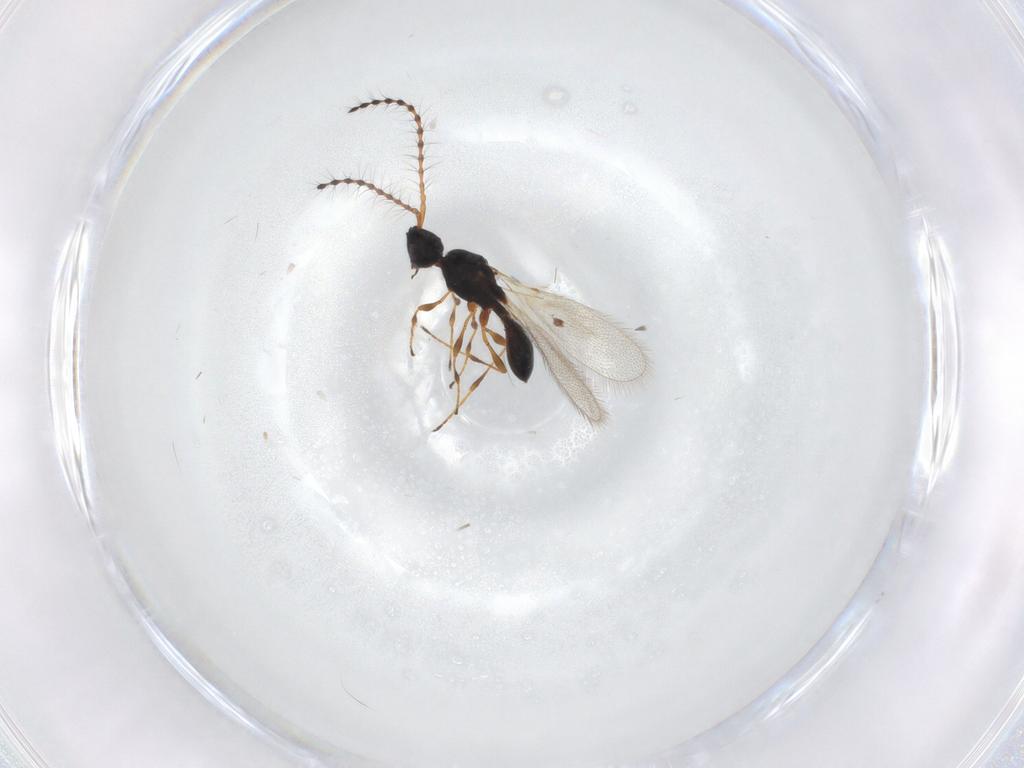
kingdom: Animalia
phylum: Arthropoda
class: Insecta
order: Hymenoptera
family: Diapriidae
